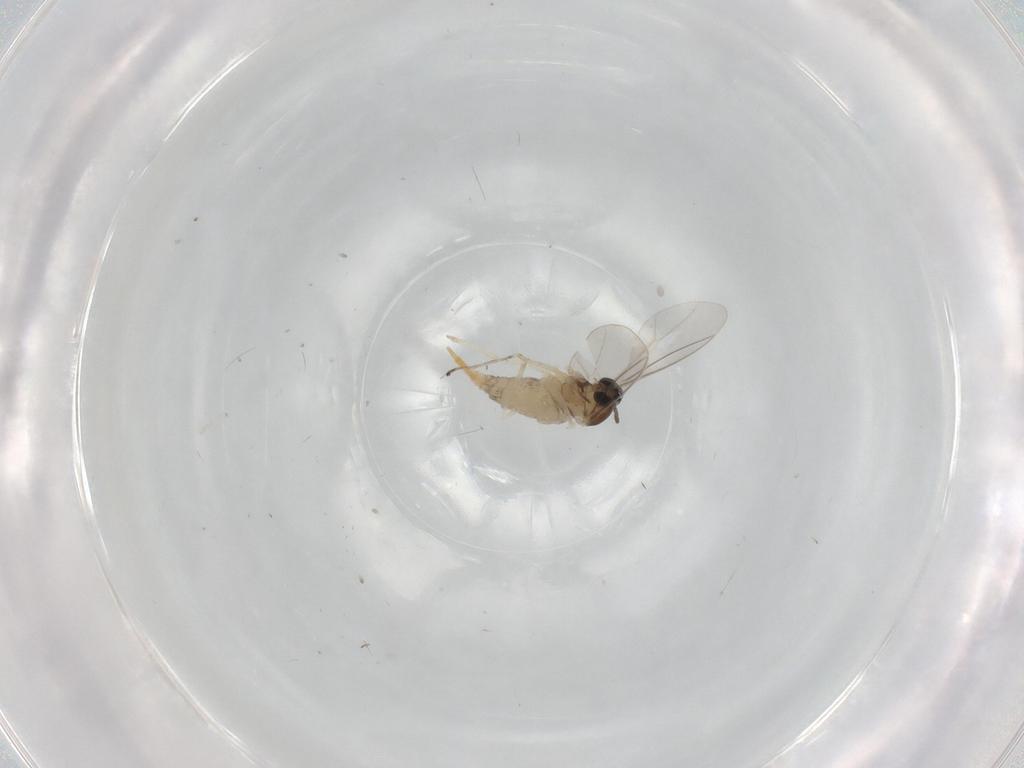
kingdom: Animalia
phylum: Arthropoda
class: Insecta
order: Diptera
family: Cecidomyiidae
